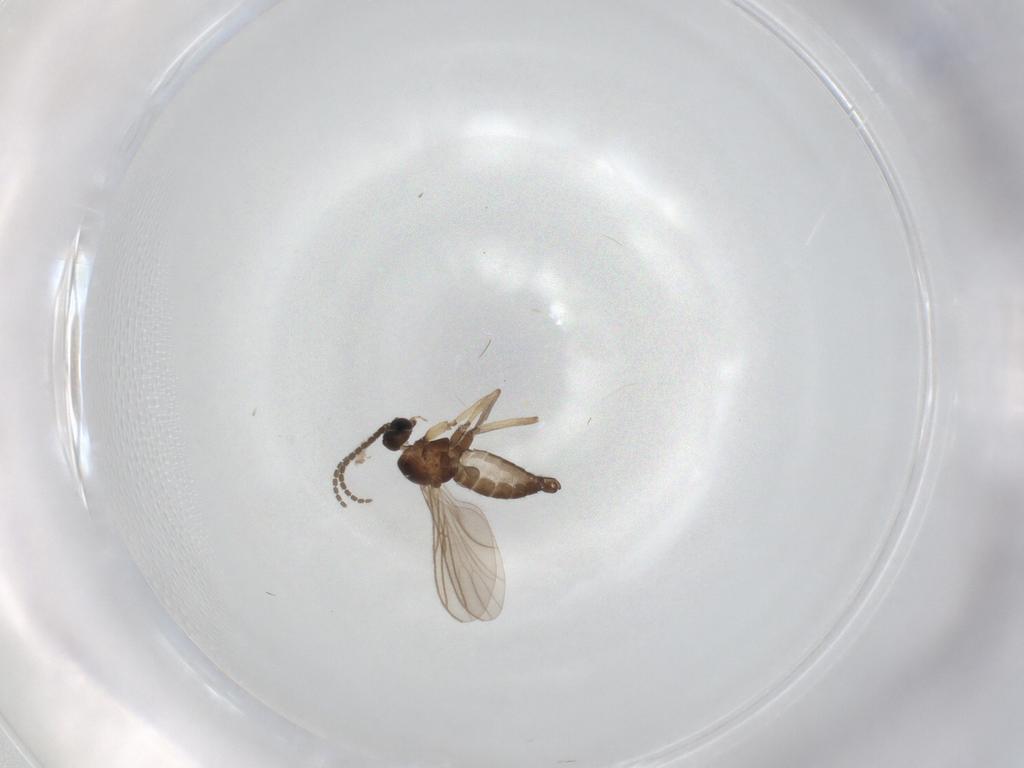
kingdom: Animalia
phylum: Arthropoda
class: Insecta
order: Diptera
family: Sciaridae
